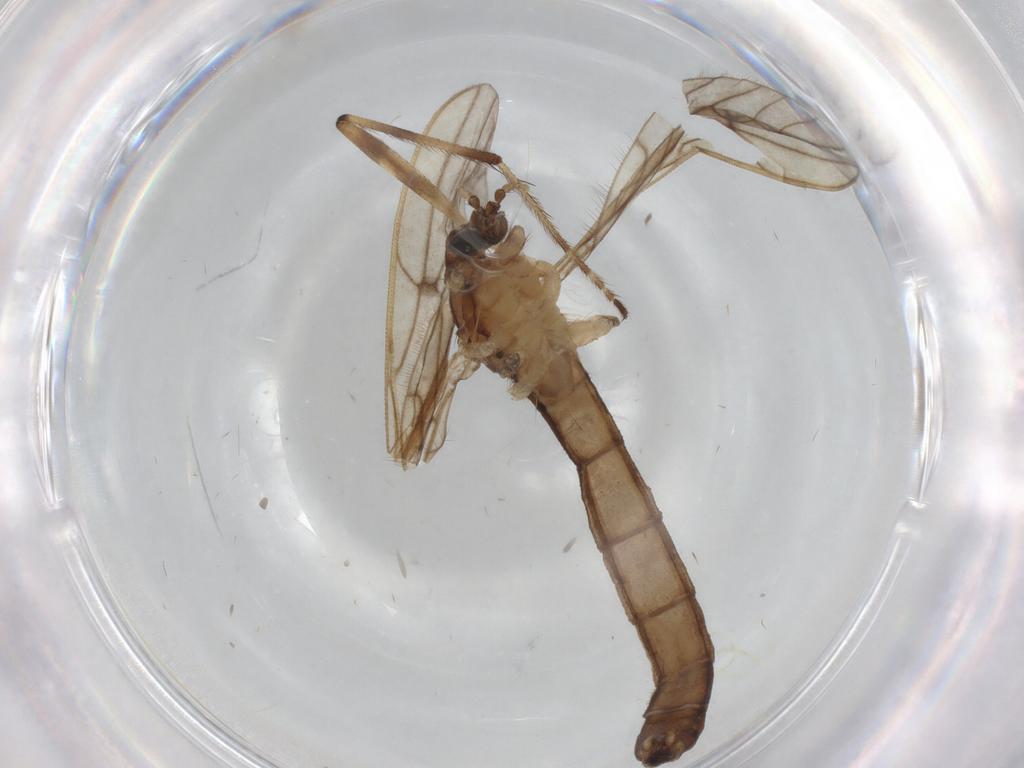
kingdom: Animalia
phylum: Arthropoda
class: Insecta
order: Diptera
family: Limoniidae
